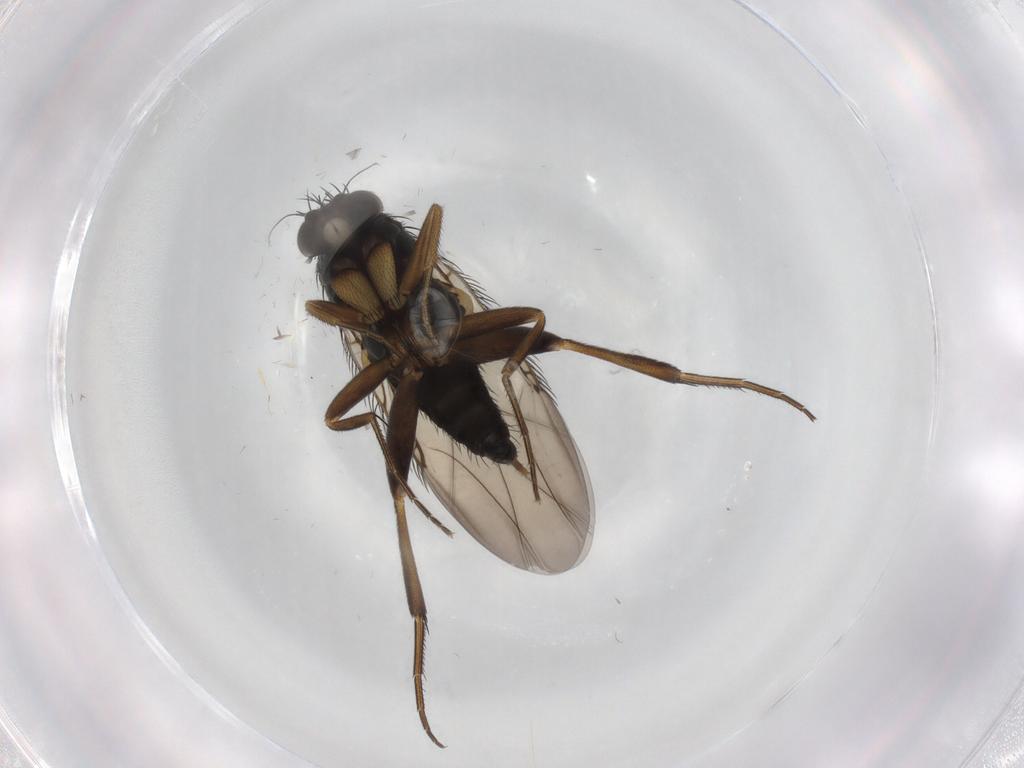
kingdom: Animalia
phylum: Arthropoda
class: Insecta
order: Diptera
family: Phoridae
